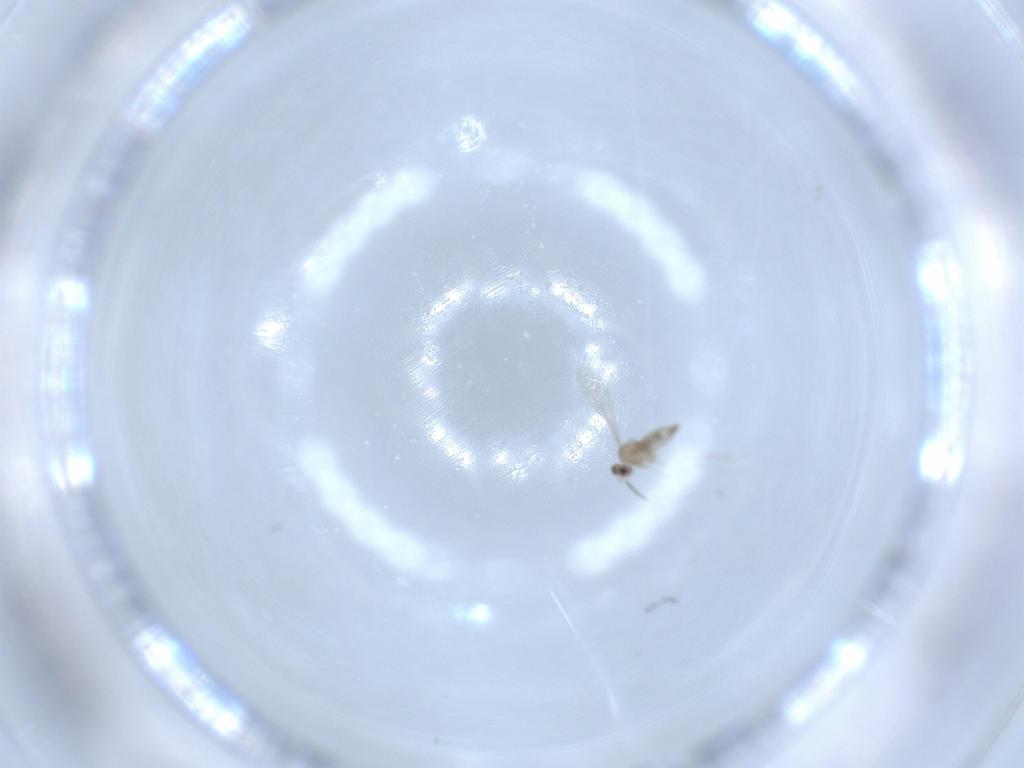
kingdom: Animalia
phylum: Arthropoda
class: Insecta
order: Diptera
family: Cecidomyiidae
